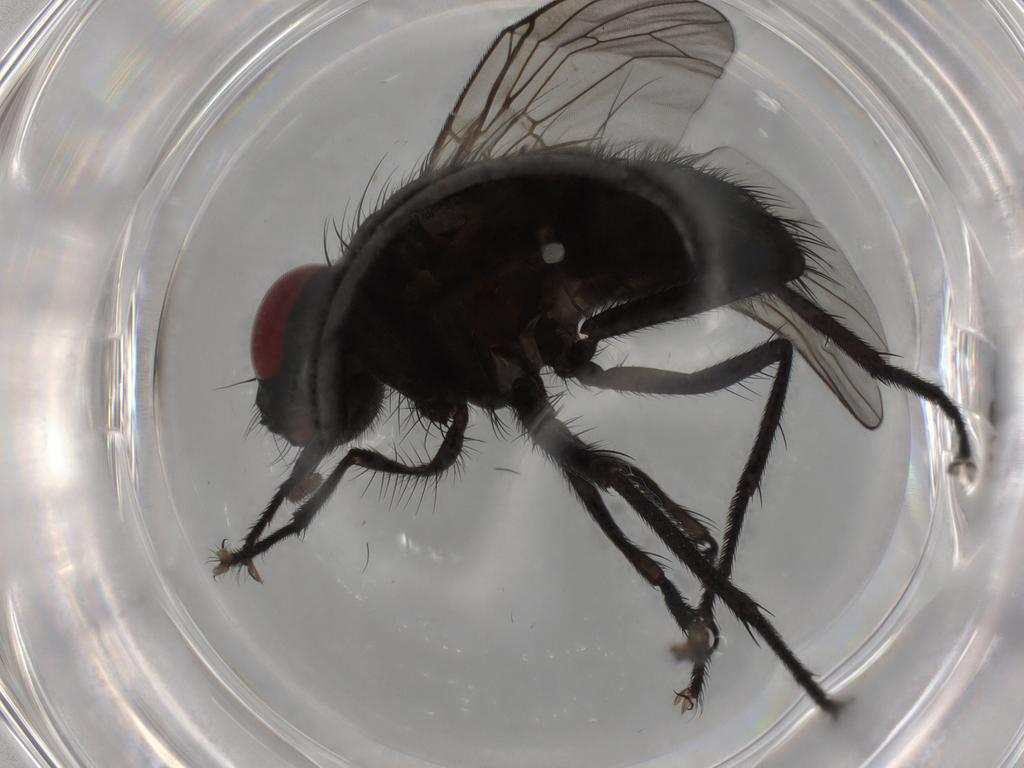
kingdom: Animalia
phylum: Arthropoda
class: Insecta
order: Diptera
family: Muscidae
